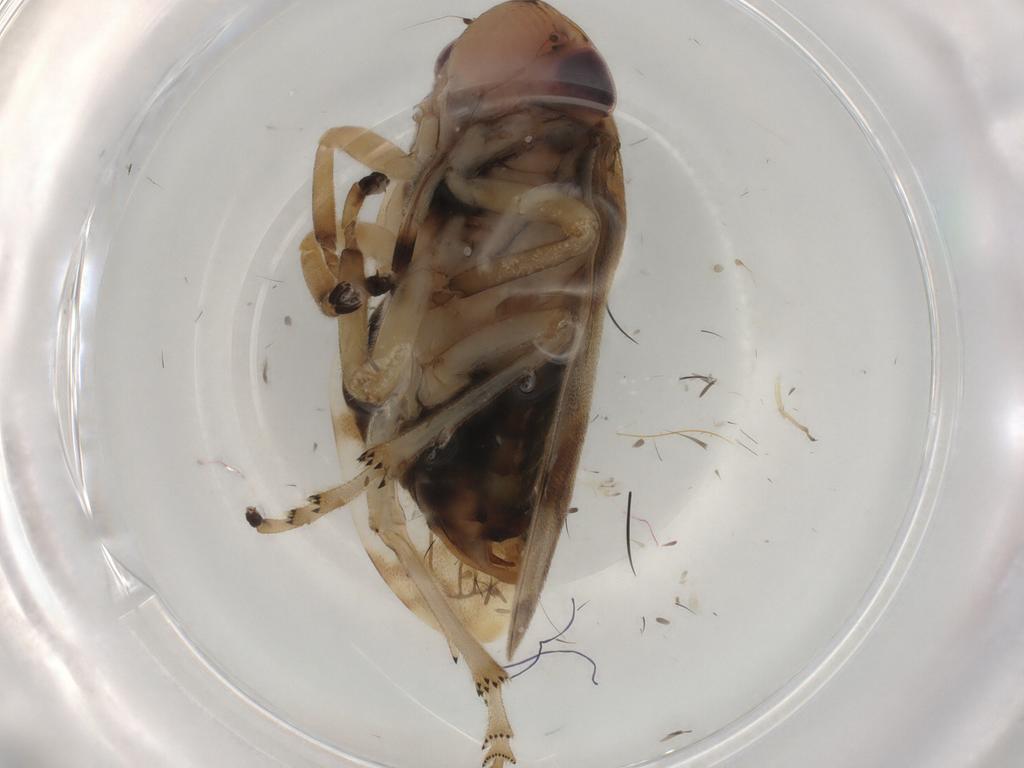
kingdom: Animalia
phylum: Arthropoda
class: Insecta
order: Hemiptera
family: Aphrophoridae
